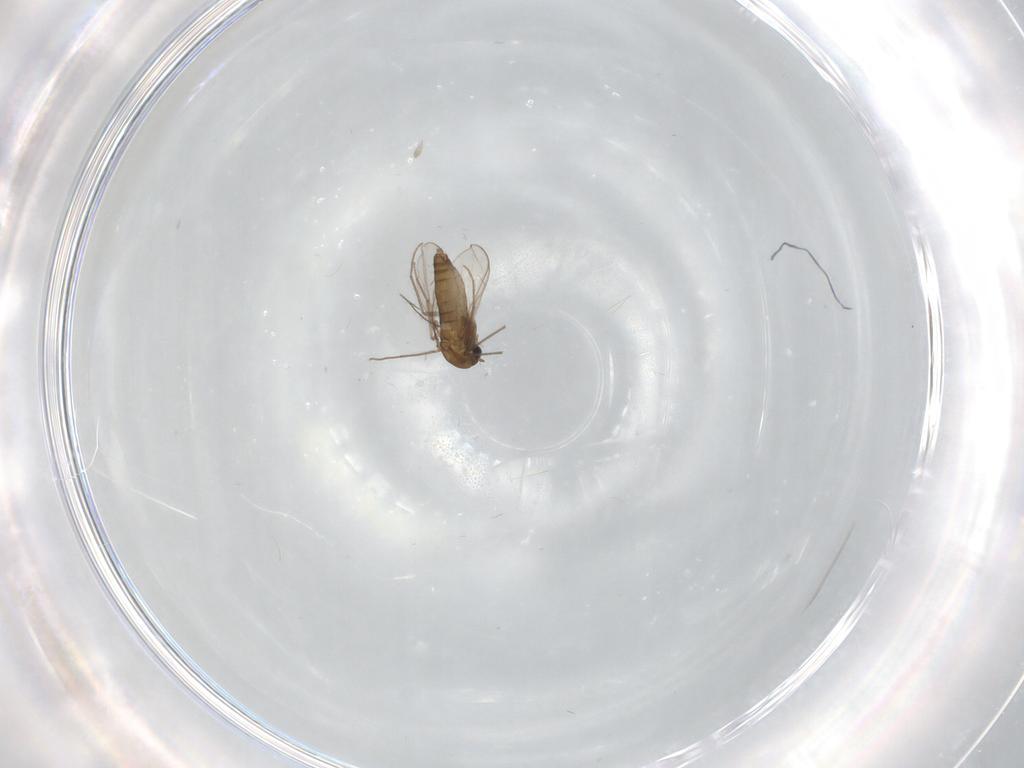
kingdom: Animalia
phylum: Arthropoda
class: Insecta
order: Diptera
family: Chironomidae
